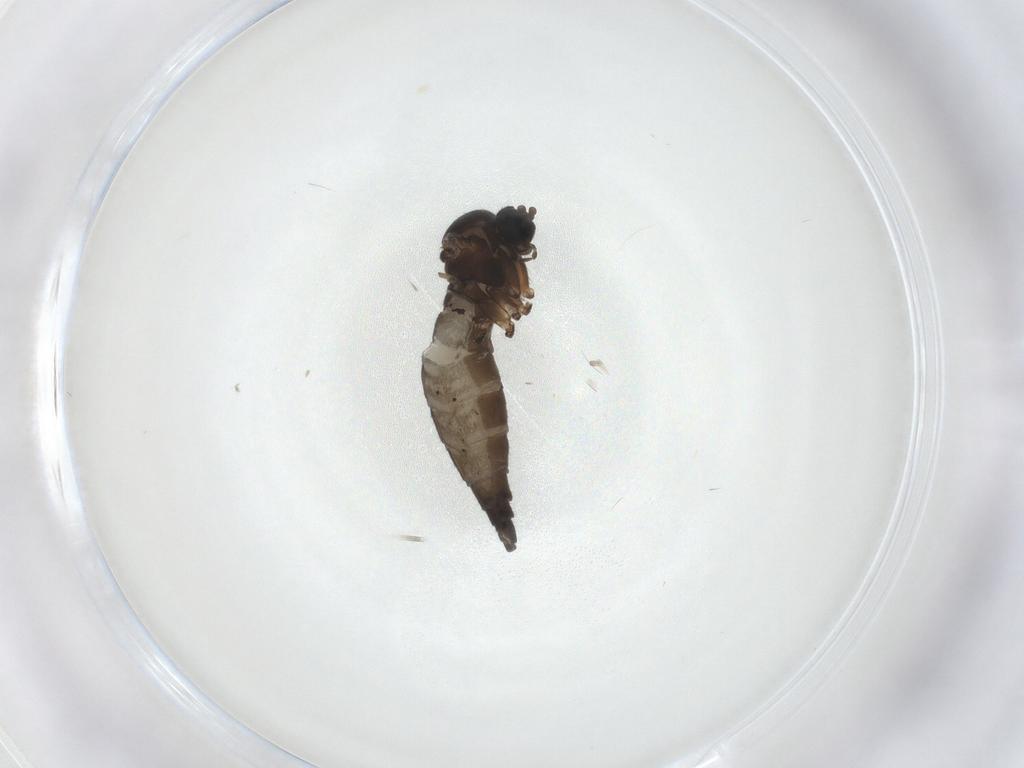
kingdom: Animalia
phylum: Arthropoda
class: Insecta
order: Diptera
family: Sciaridae
